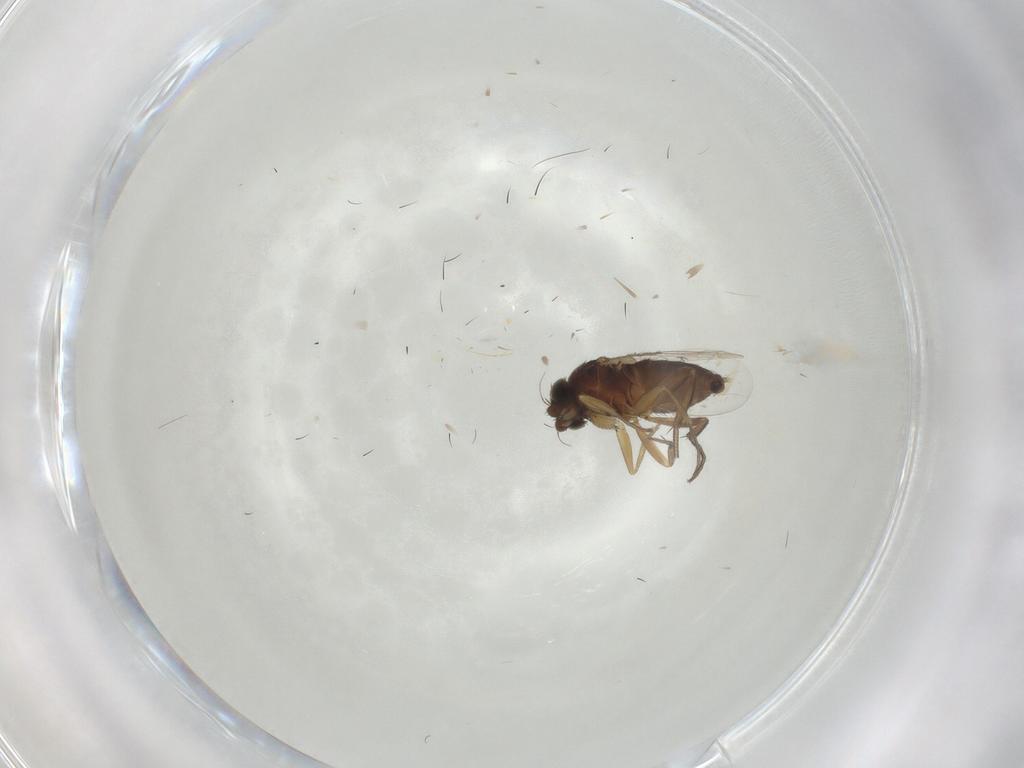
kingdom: Animalia
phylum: Arthropoda
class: Insecta
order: Diptera
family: Phoridae
